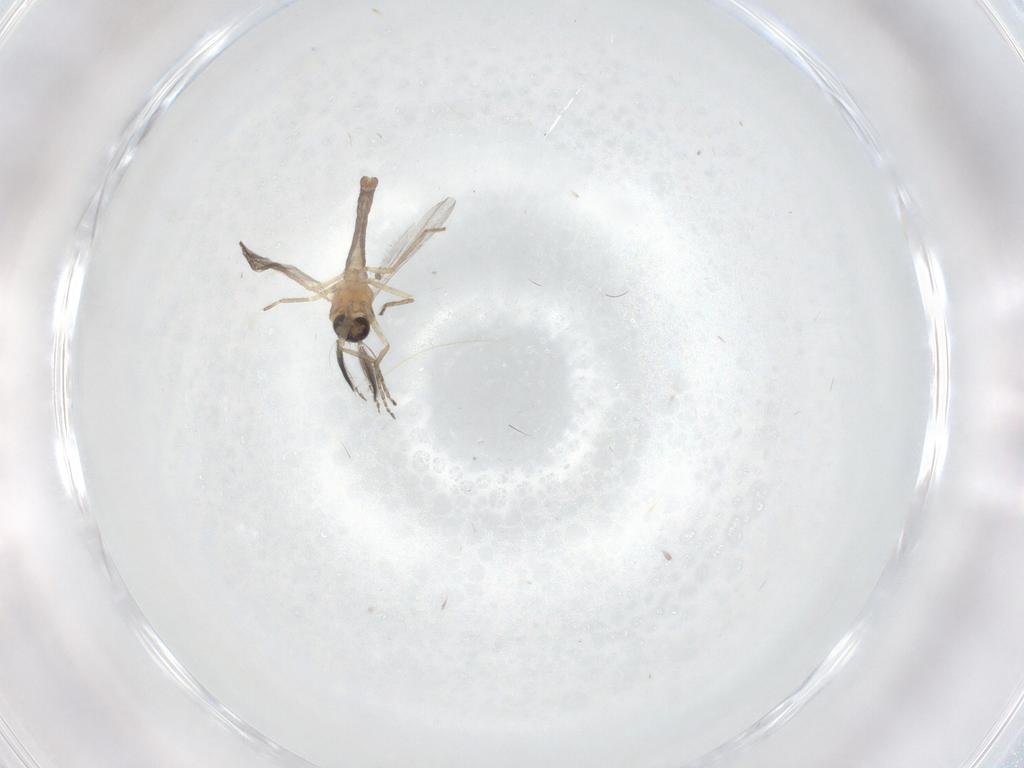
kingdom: Animalia
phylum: Arthropoda
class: Insecta
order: Diptera
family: Ceratopogonidae
